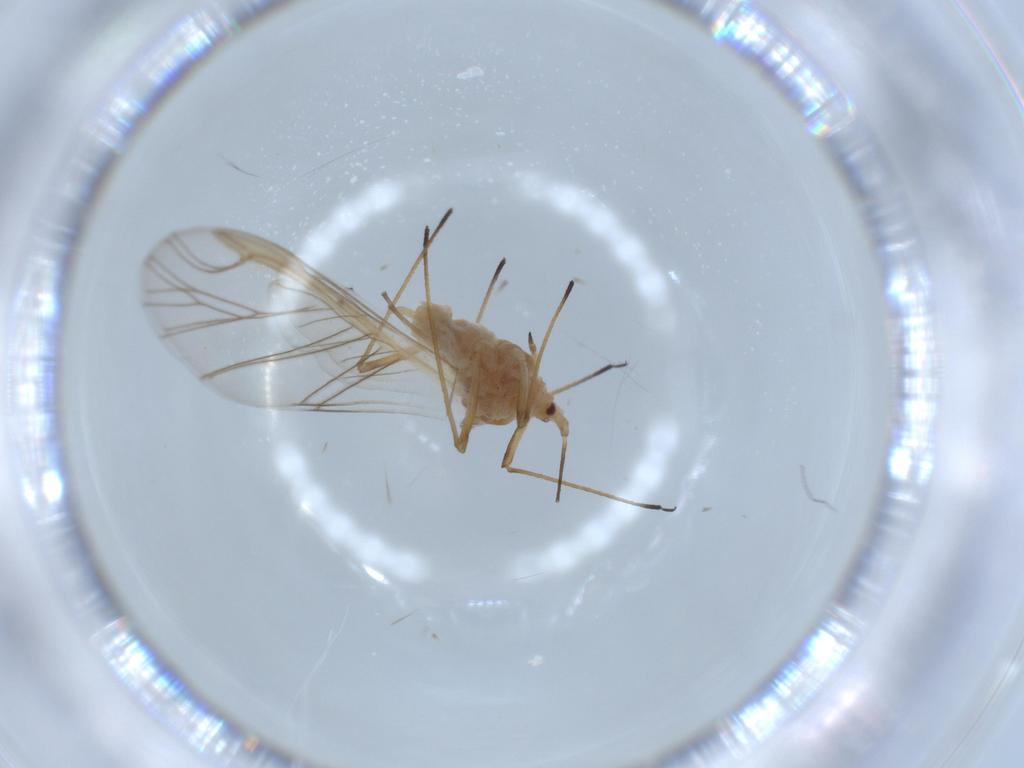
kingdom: Animalia
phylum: Arthropoda
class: Insecta
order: Hemiptera
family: Aphididae
